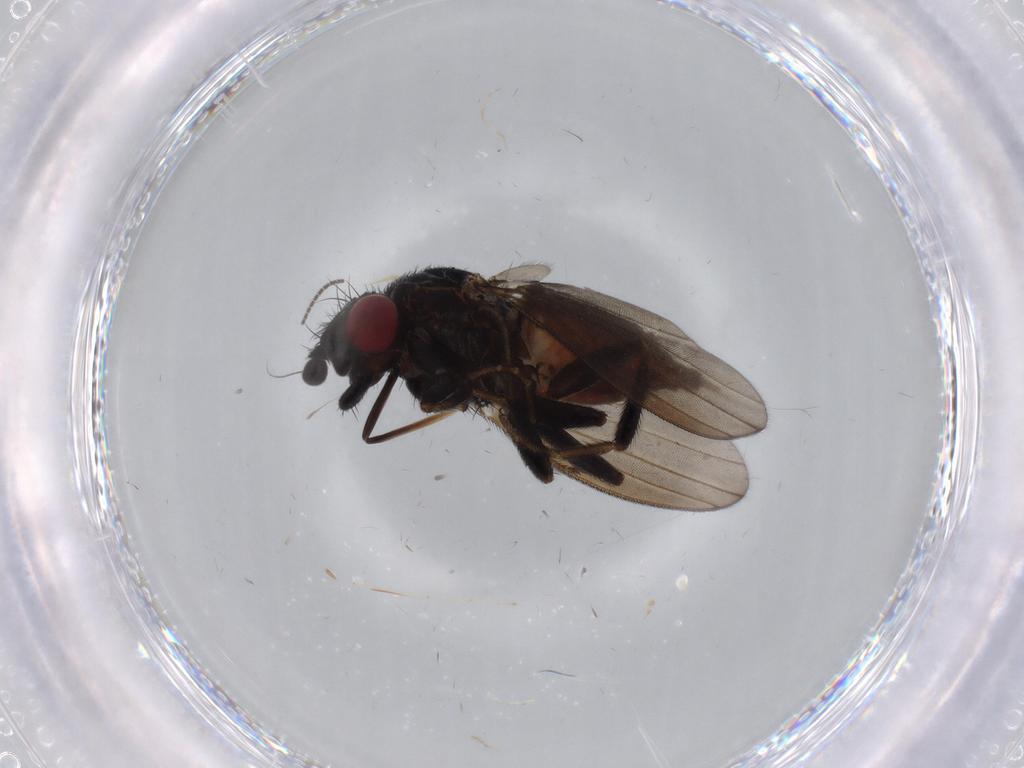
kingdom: Animalia
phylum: Arthropoda
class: Insecta
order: Diptera
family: Milichiidae
